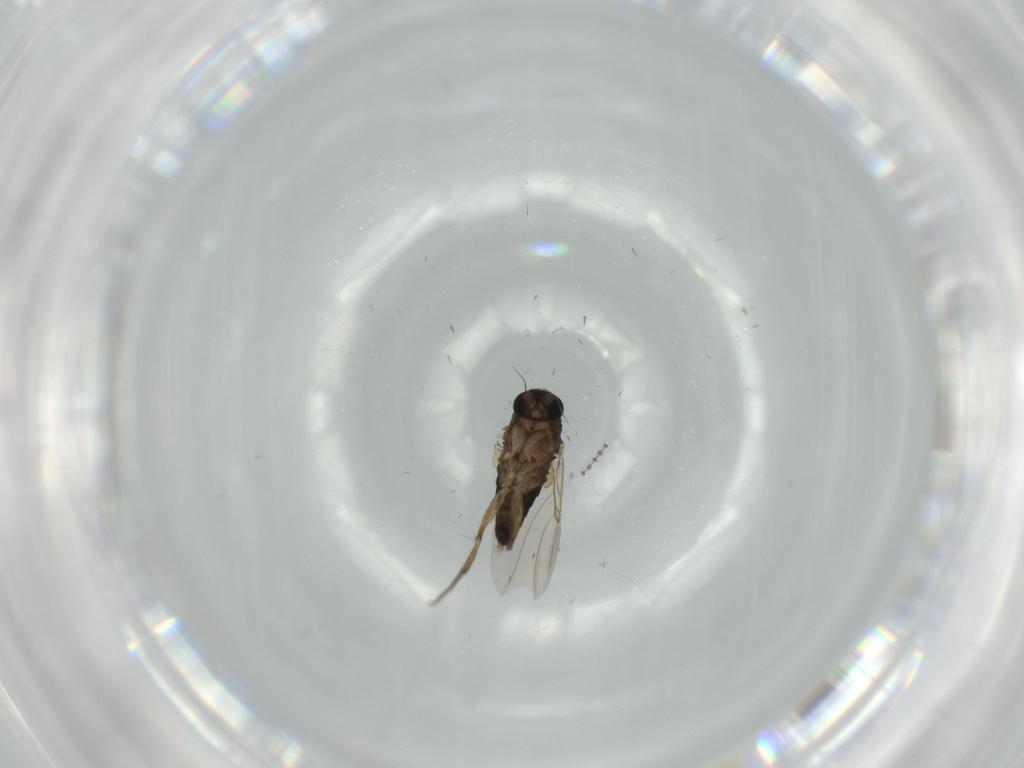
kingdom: Animalia
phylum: Arthropoda
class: Insecta
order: Diptera
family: Phoridae
